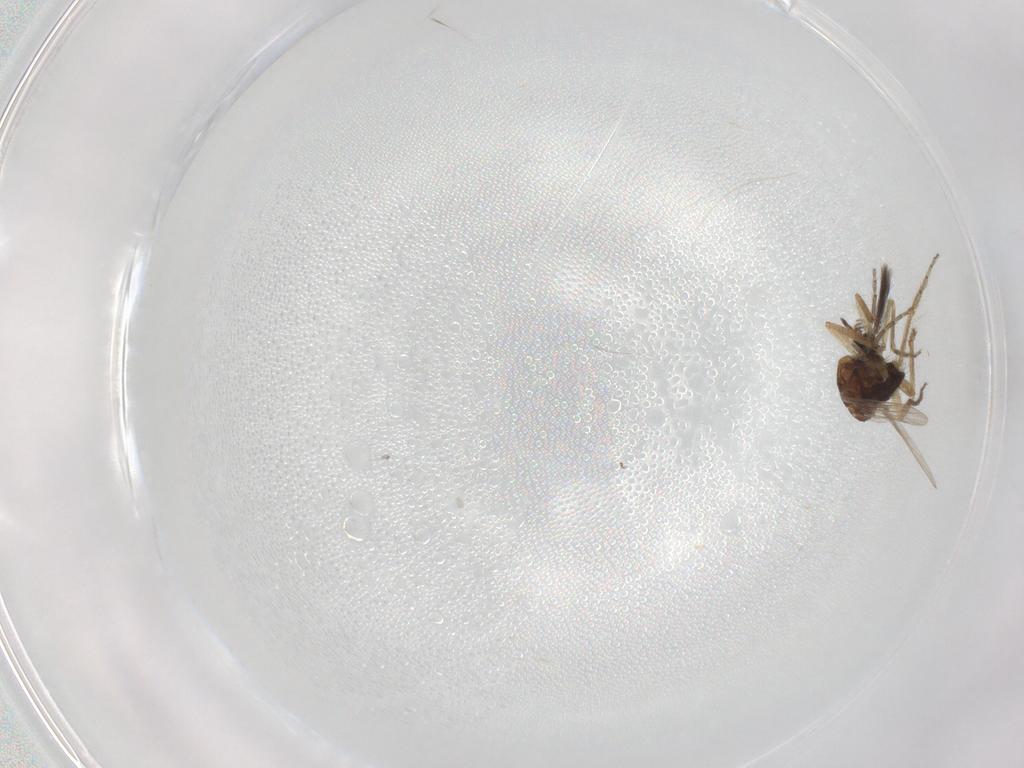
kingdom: Animalia
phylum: Arthropoda
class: Insecta
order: Diptera
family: Ceratopogonidae
